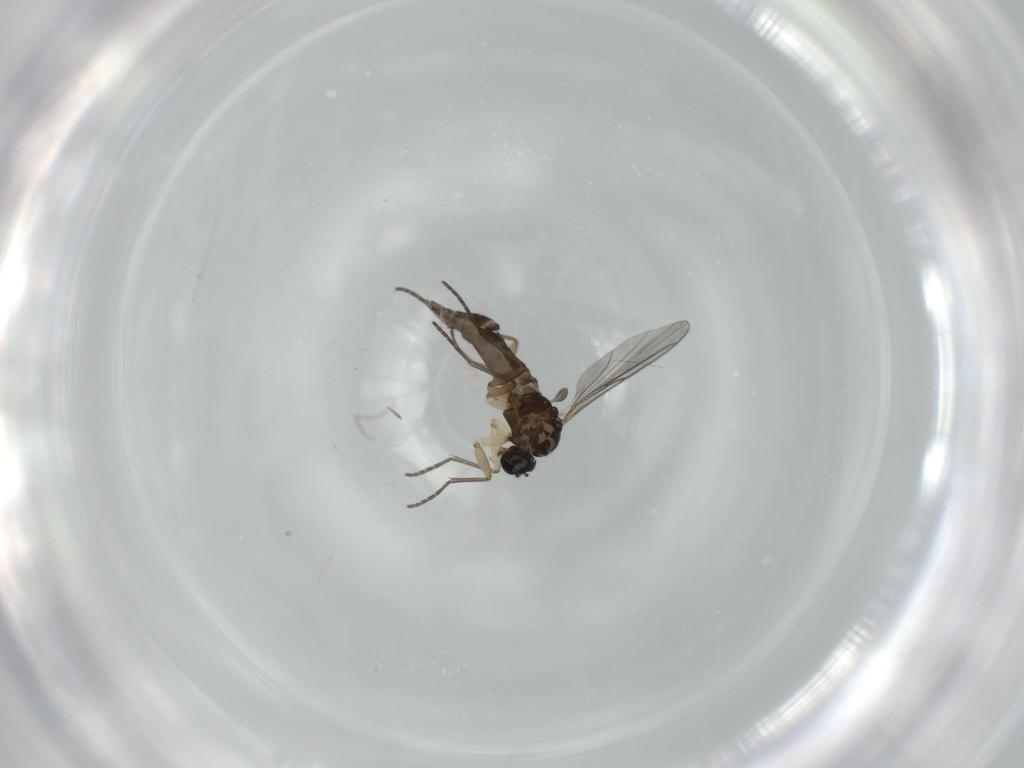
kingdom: Animalia
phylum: Arthropoda
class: Insecta
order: Diptera
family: Sciaridae
